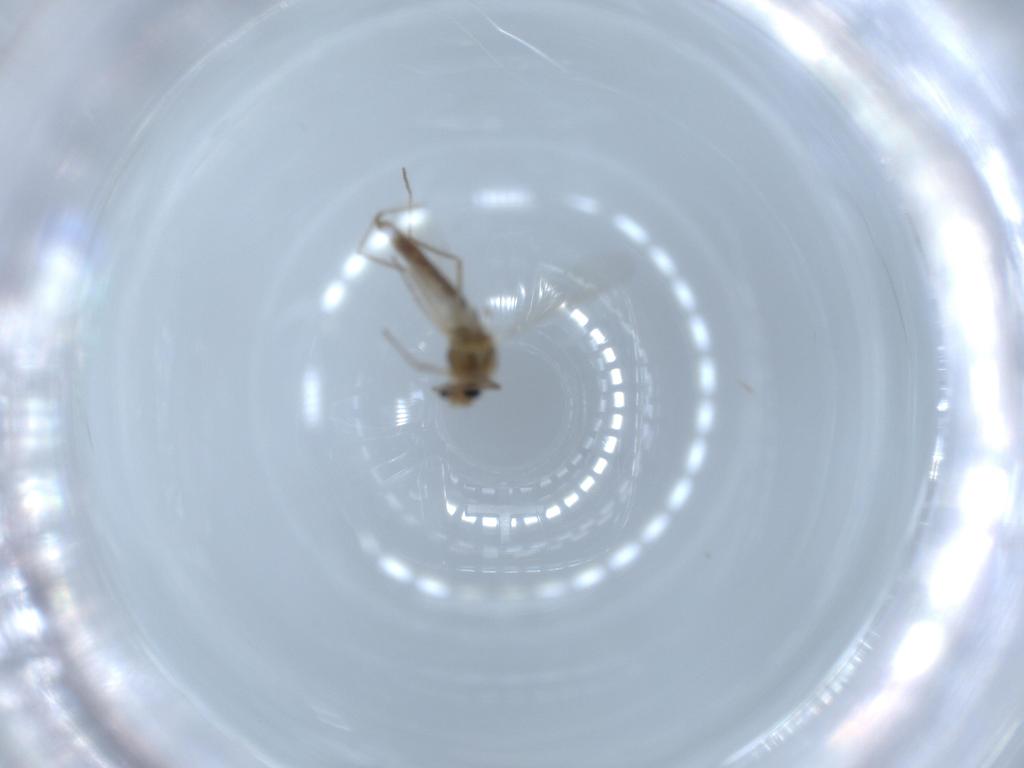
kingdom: Animalia
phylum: Arthropoda
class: Insecta
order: Diptera
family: Chironomidae
